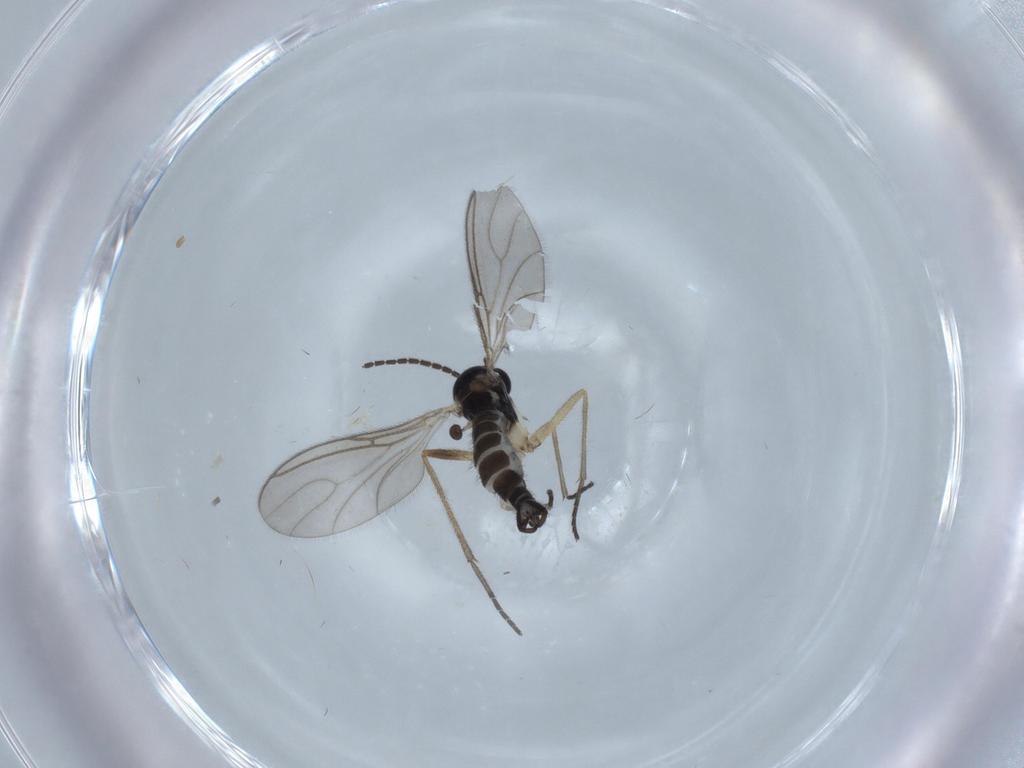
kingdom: Animalia
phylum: Arthropoda
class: Insecta
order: Diptera
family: Sciaridae
